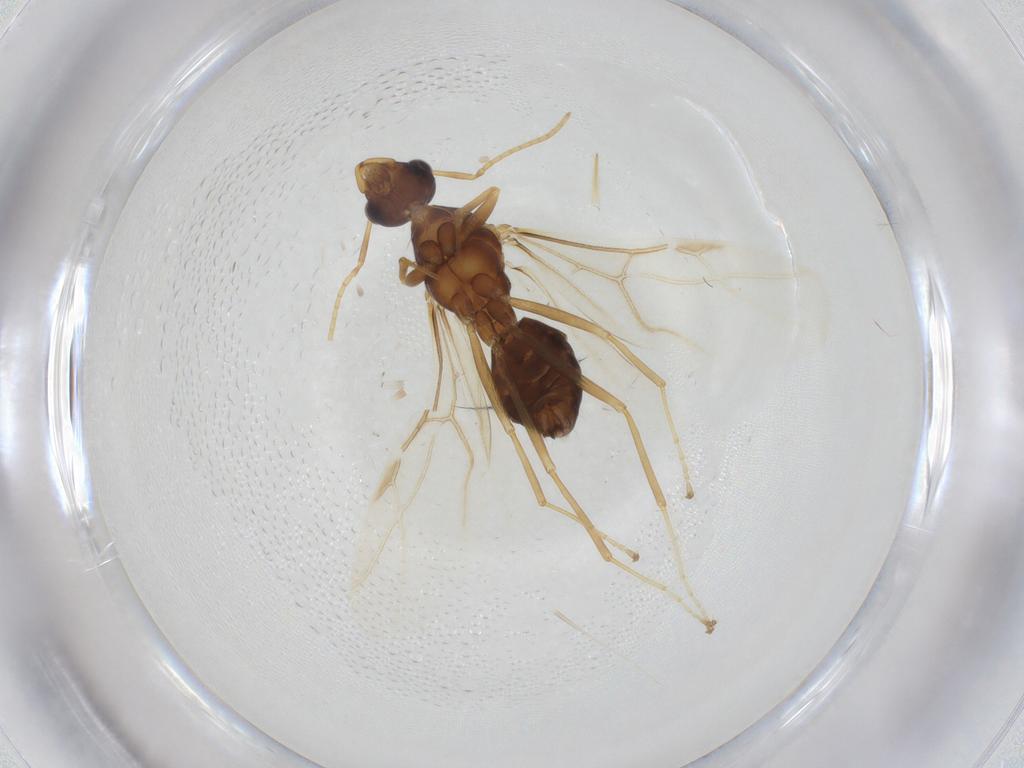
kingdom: Animalia
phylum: Arthropoda
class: Insecta
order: Hymenoptera
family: Formicidae
